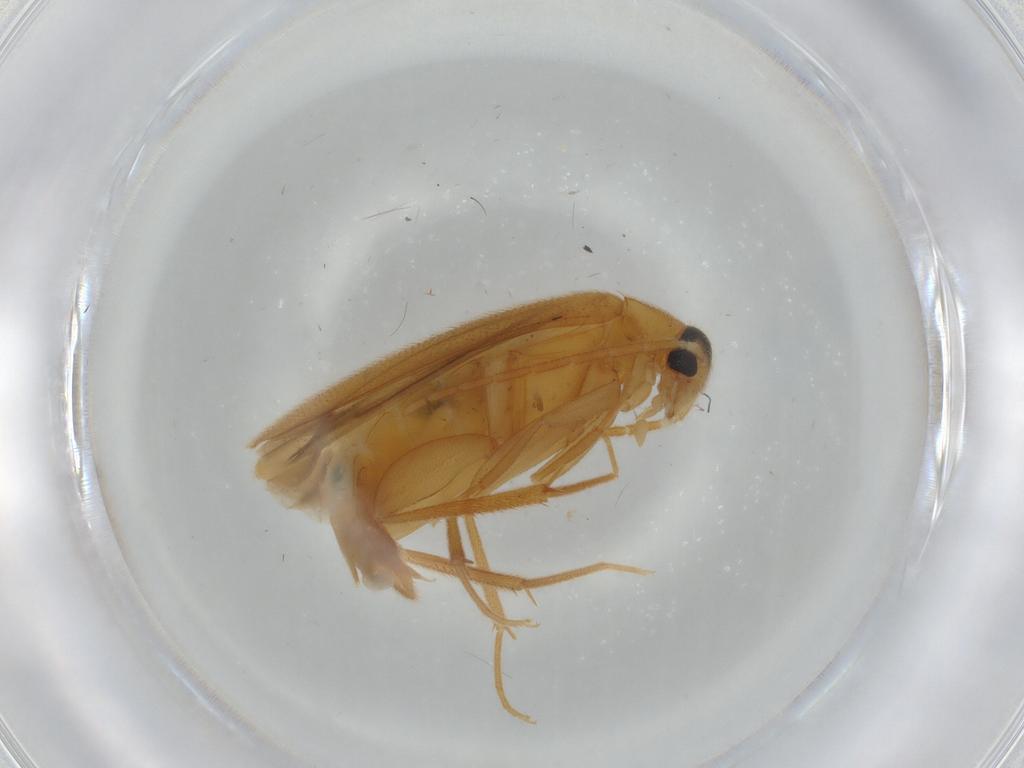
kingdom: Animalia
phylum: Arthropoda
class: Insecta
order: Coleoptera
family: Scraptiidae
